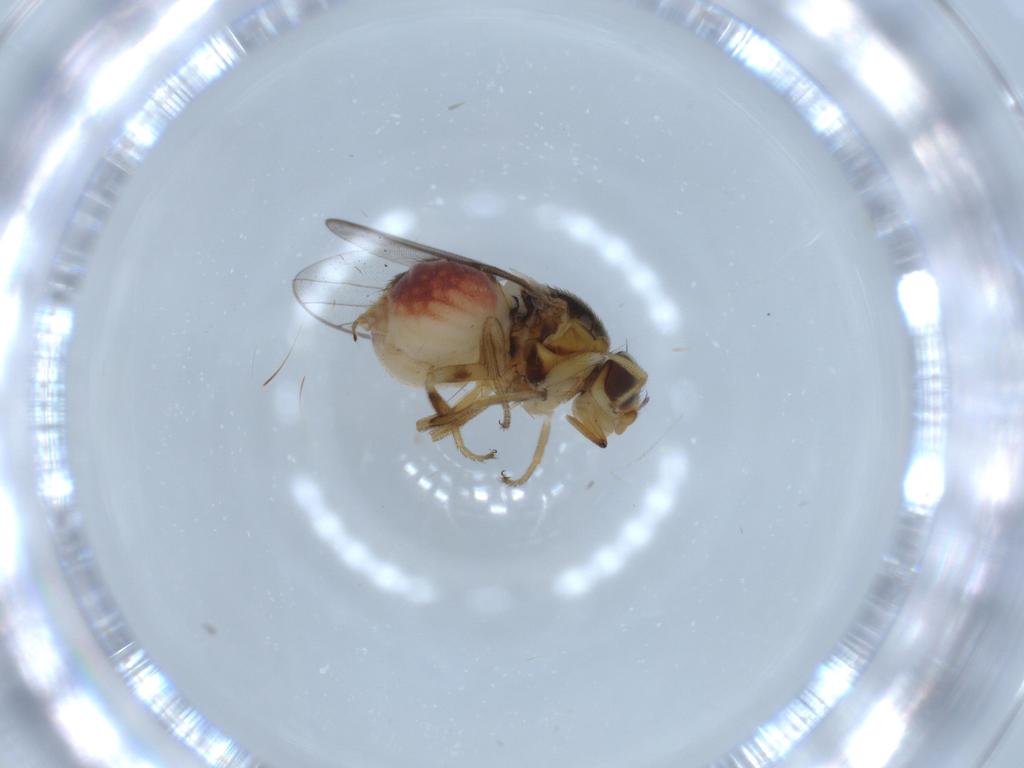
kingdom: Animalia
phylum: Arthropoda
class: Insecta
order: Diptera
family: Chloropidae
